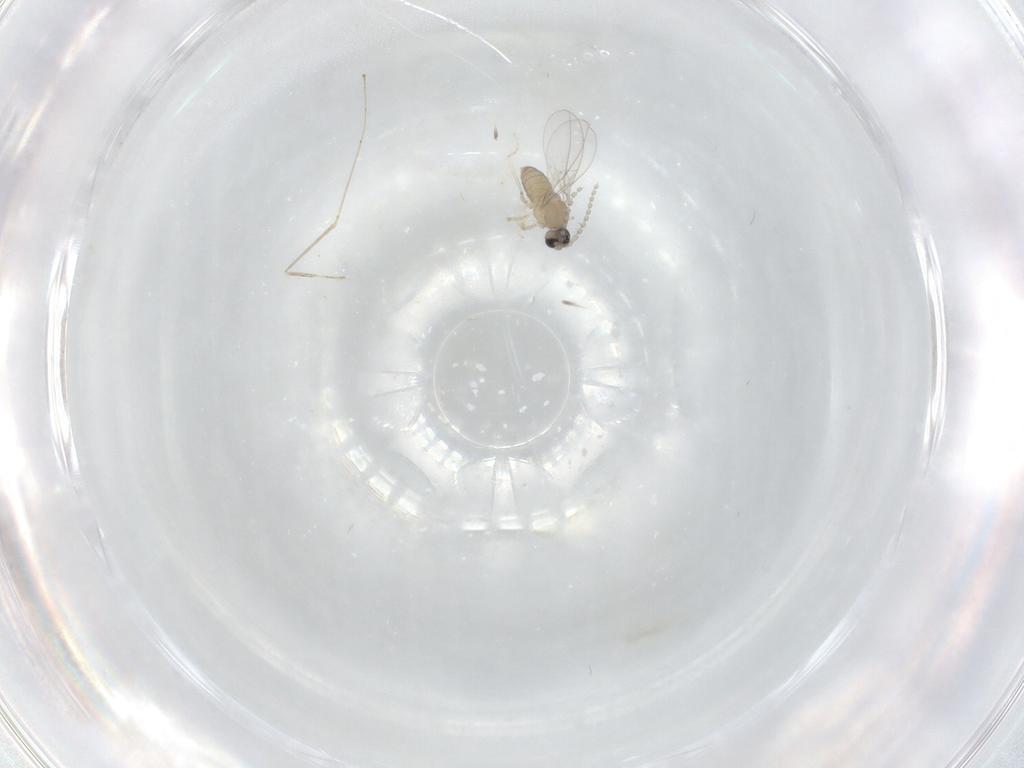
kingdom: Animalia
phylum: Arthropoda
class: Insecta
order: Diptera
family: Cecidomyiidae
